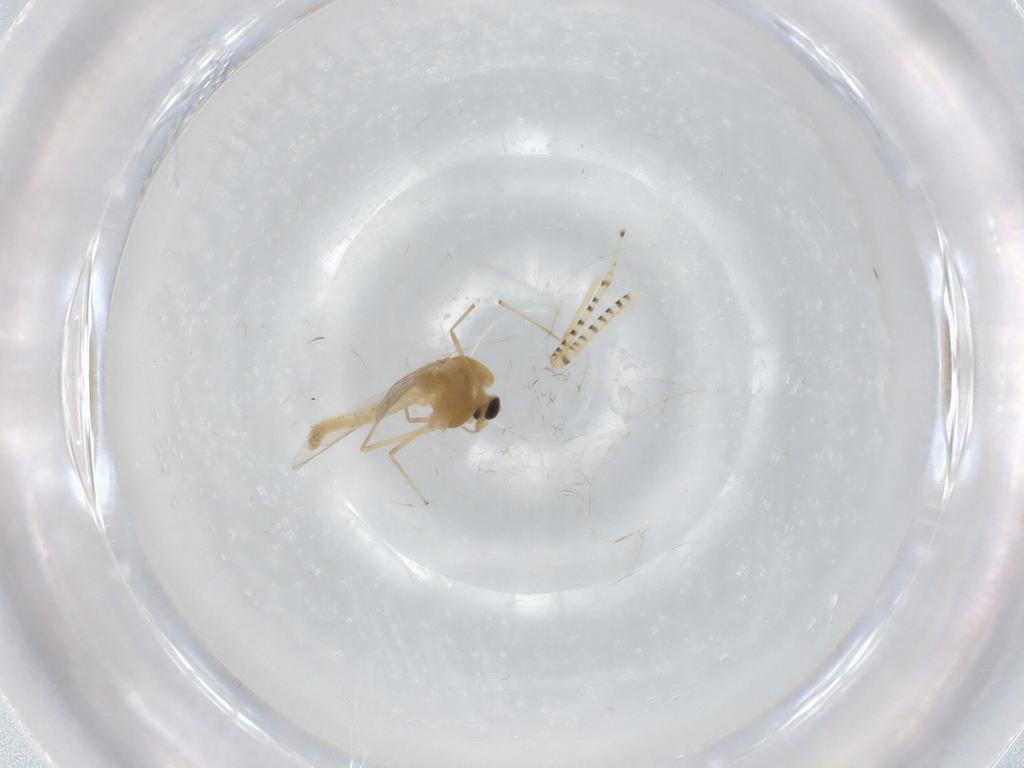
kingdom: Animalia
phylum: Arthropoda
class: Insecta
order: Diptera
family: Chironomidae
